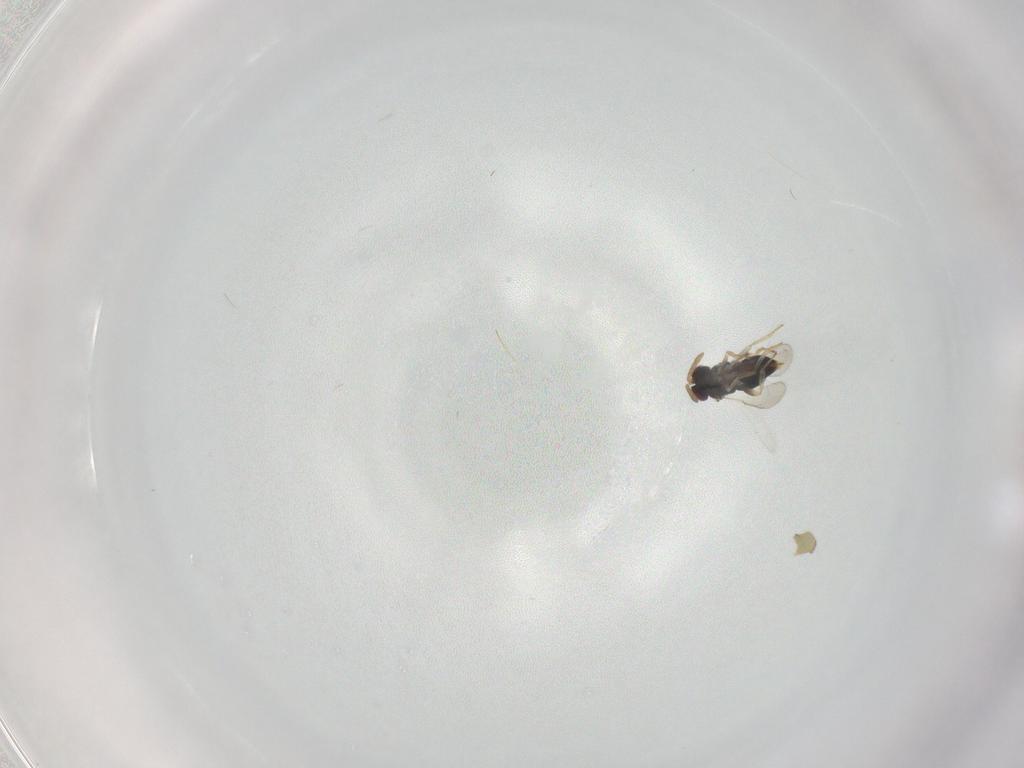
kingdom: Animalia
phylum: Arthropoda
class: Insecta
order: Hymenoptera
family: Aphelinidae
